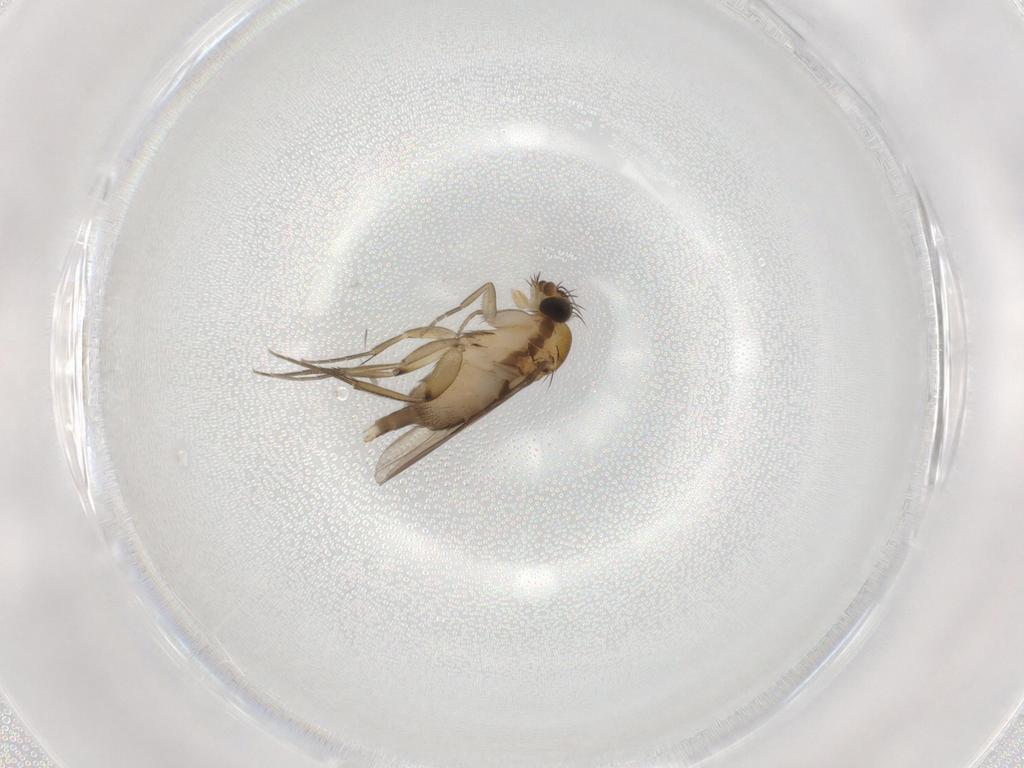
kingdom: Animalia
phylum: Arthropoda
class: Insecta
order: Diptera
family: Phoridae
